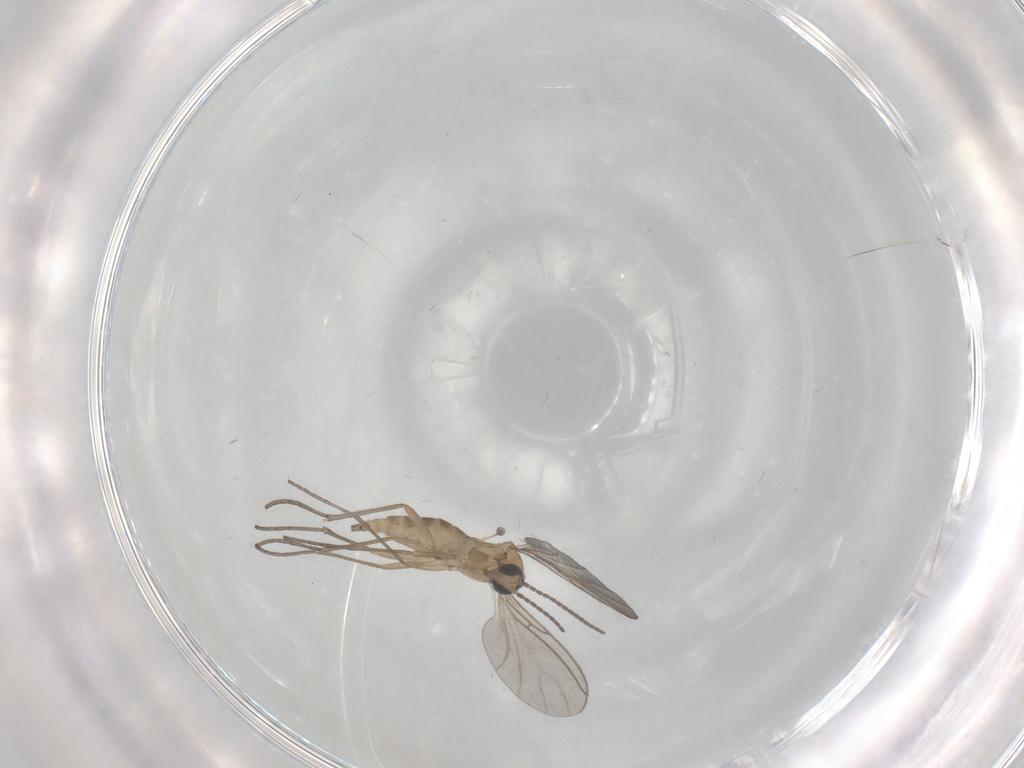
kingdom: Animalia
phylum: Arthropoda
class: Insecta
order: Diptera
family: Sciaridae
